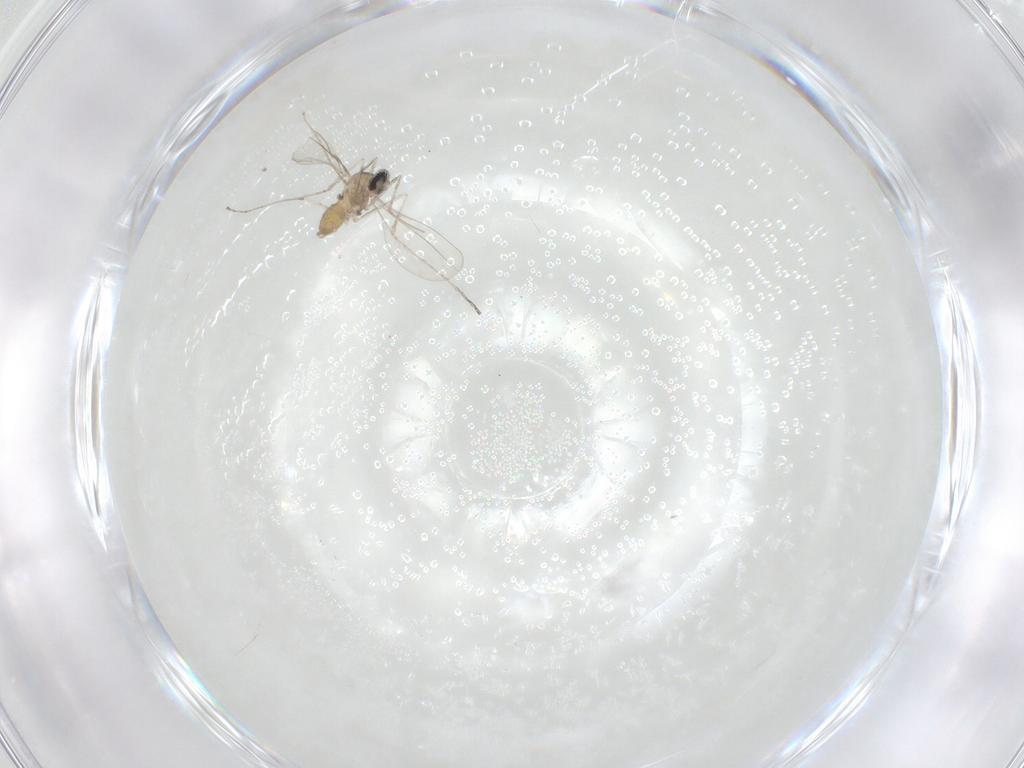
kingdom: Animalia
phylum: Arthropoda
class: Insecta
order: Diptera
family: Cecidomyiidae
